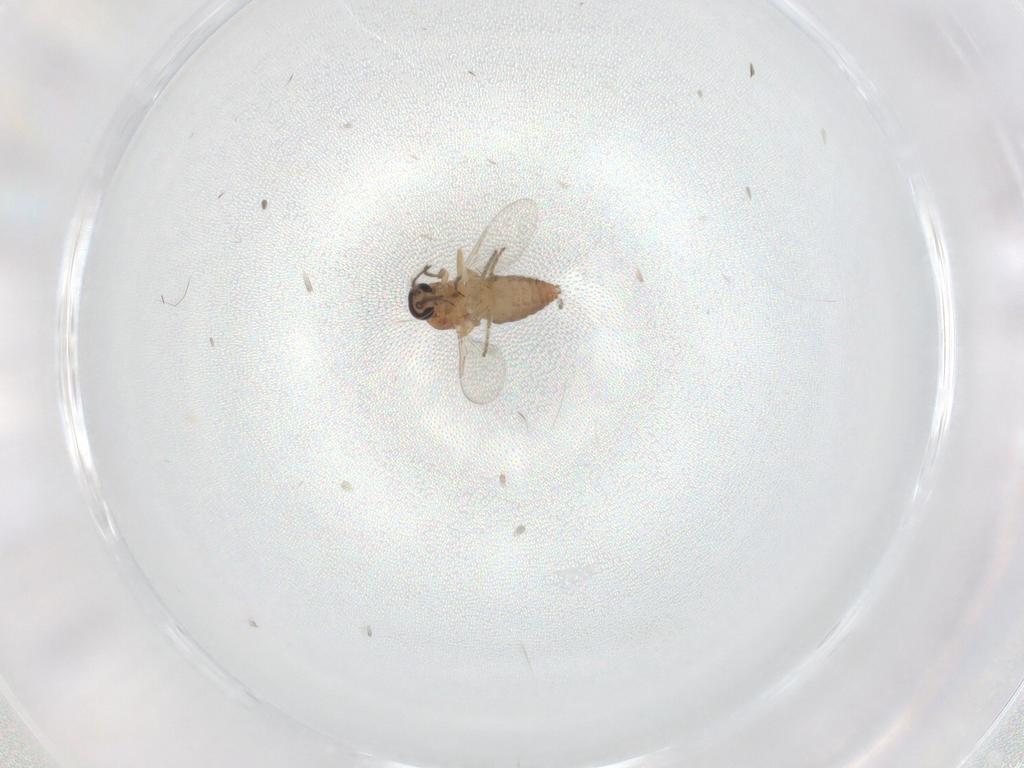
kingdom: Animalia
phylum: Arthropoda
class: Insecta
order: Diptera
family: Ceratopogonidae
